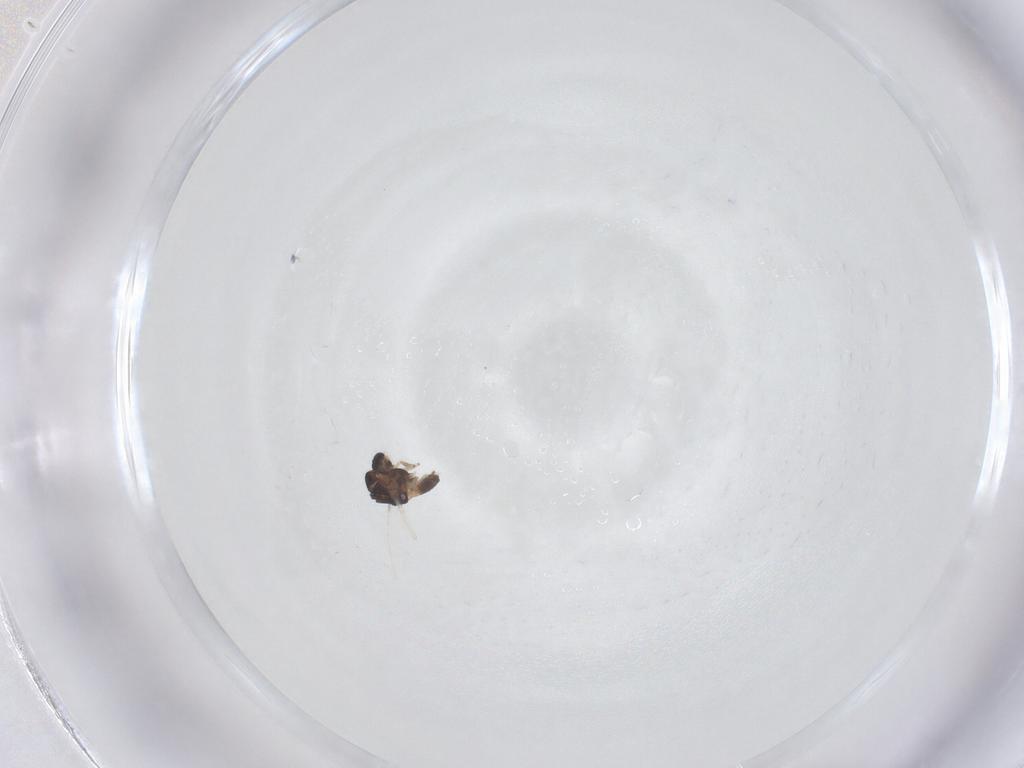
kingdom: Animalia
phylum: Arthropoda
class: Insecta
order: Diptera
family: Chironomidae
